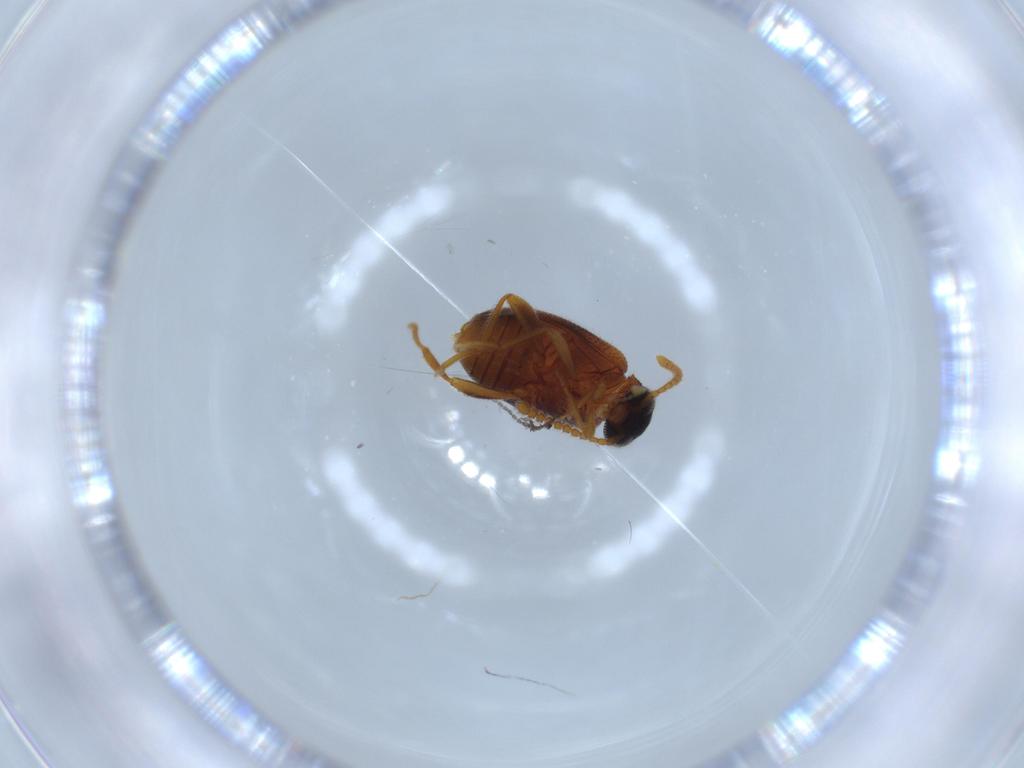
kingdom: Animalia
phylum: Arthropoda
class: Insecta
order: Coleoptera
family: Aderidae
